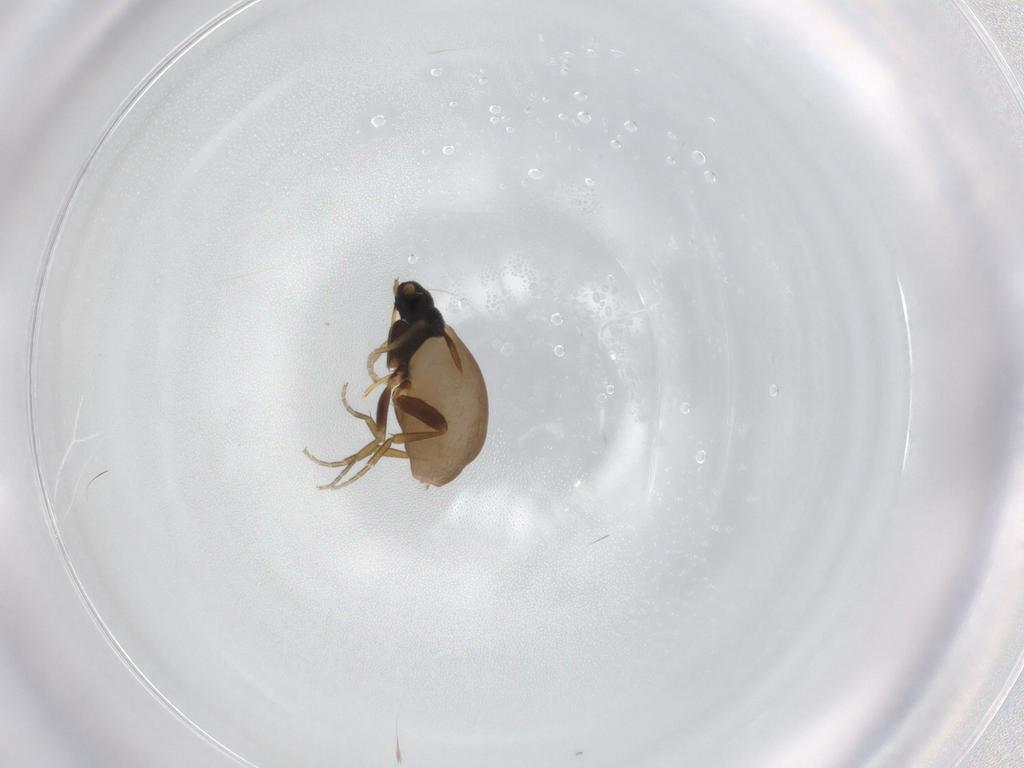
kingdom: Animalia
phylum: Arthropoda
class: Insecta
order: Diptera
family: Phoridae
